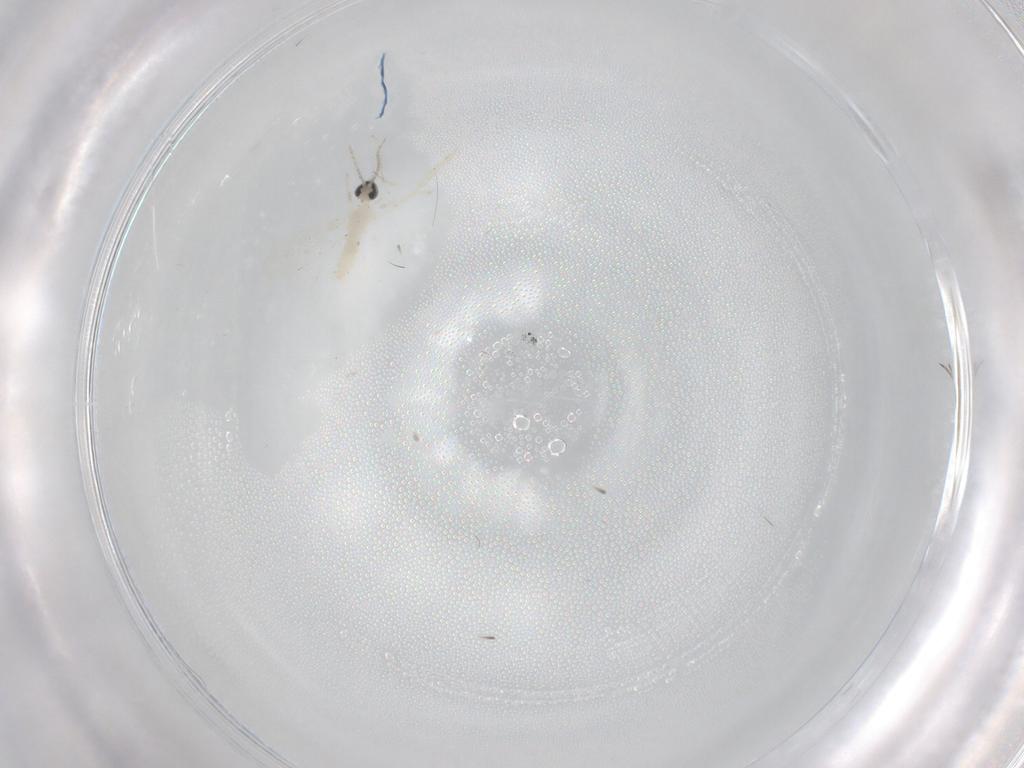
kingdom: Animalia
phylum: Arthropoda
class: Insecta
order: Diptera
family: Cecidomyiidae
